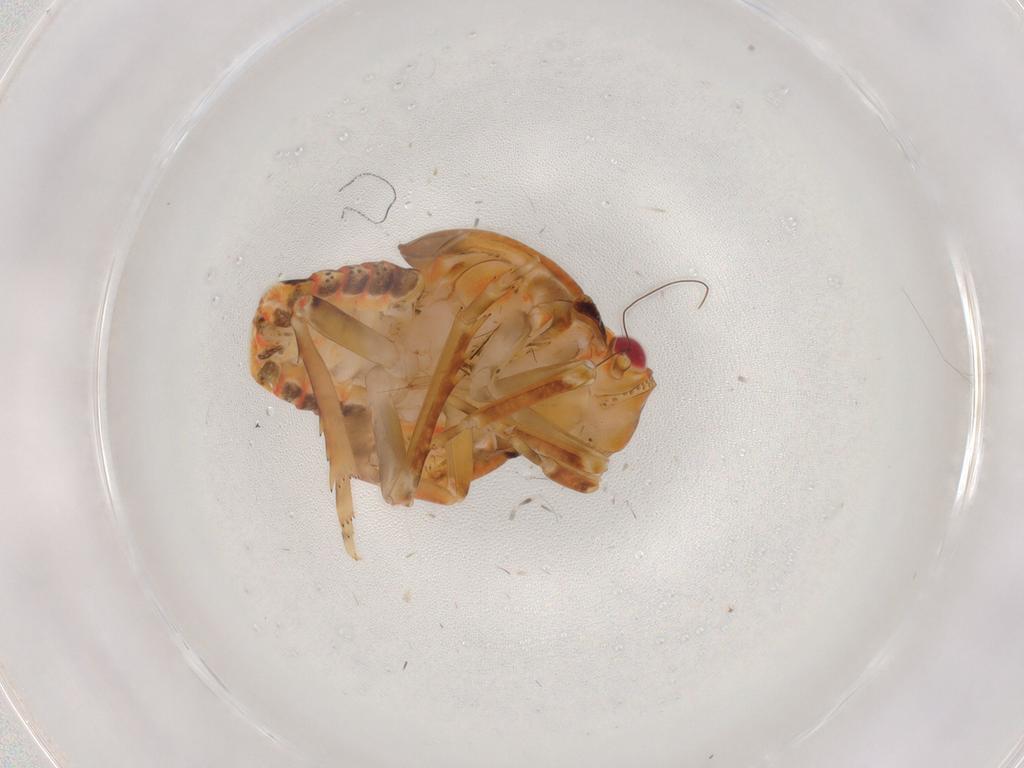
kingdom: Animalia
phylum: Arthropoda
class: Insecta
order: Hemiptera
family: Flatidae
